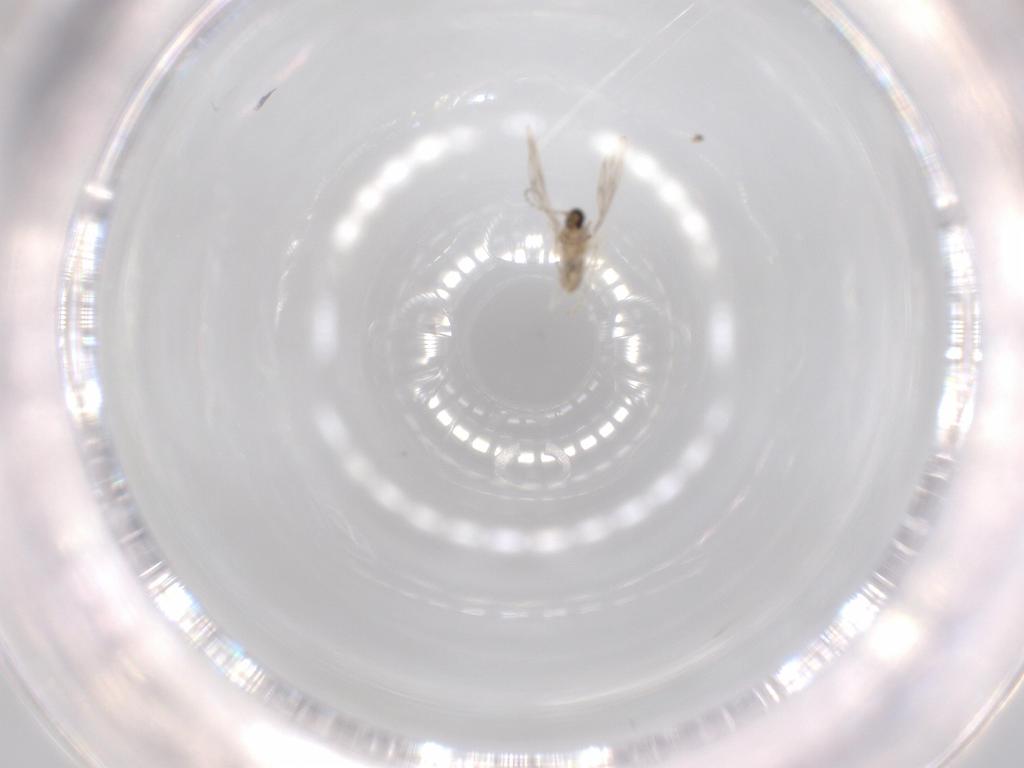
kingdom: Animalia
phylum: Arthropoda
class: Insecta
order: Diptera
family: Cecidomyiidae
